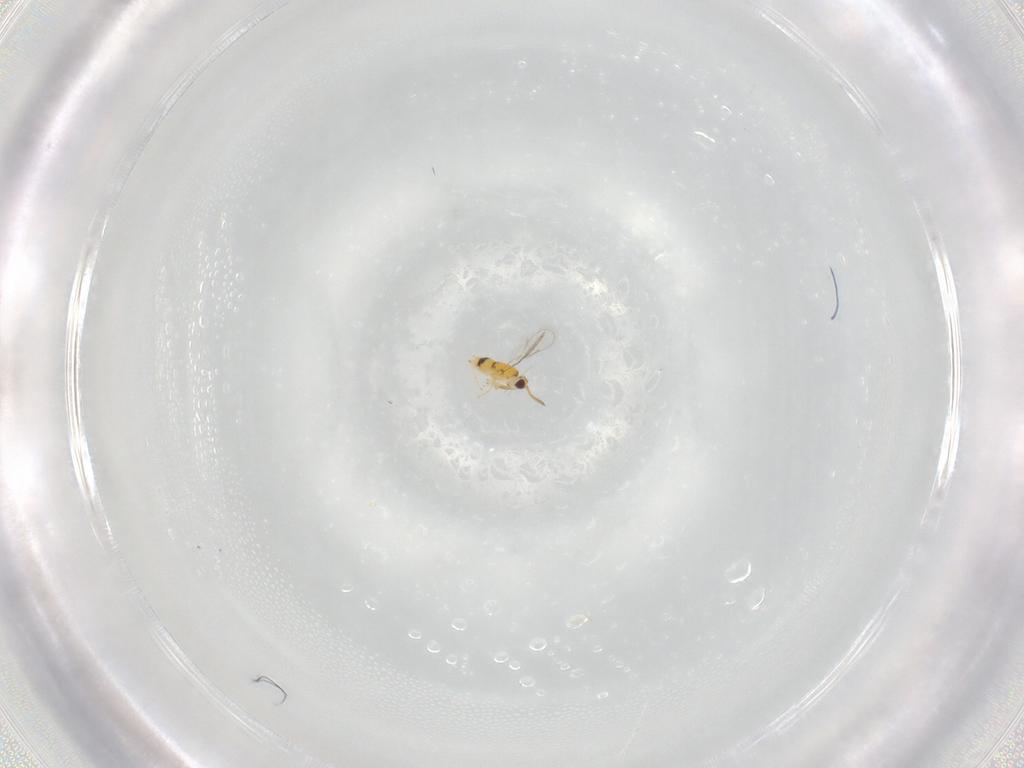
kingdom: Animalia
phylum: Arthropoda
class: Insecta
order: Hymenoptera
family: Aphelinidae
